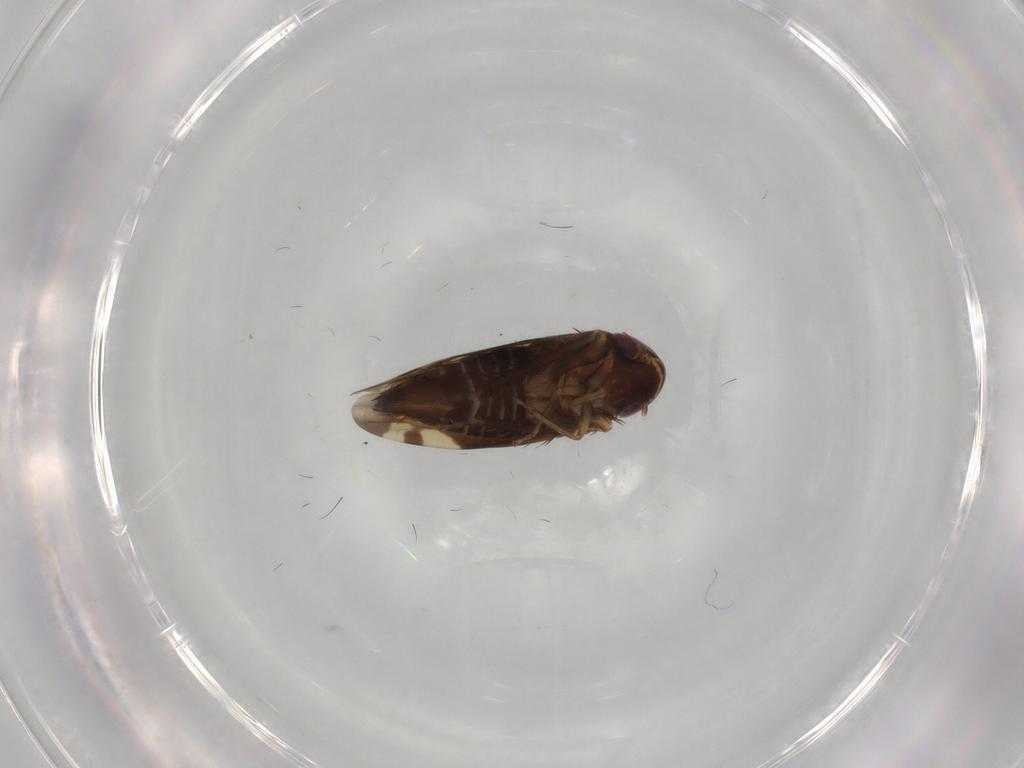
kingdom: Animalia
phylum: Arthropoda
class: Insecta
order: Hemiptera
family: Cicadellidae
